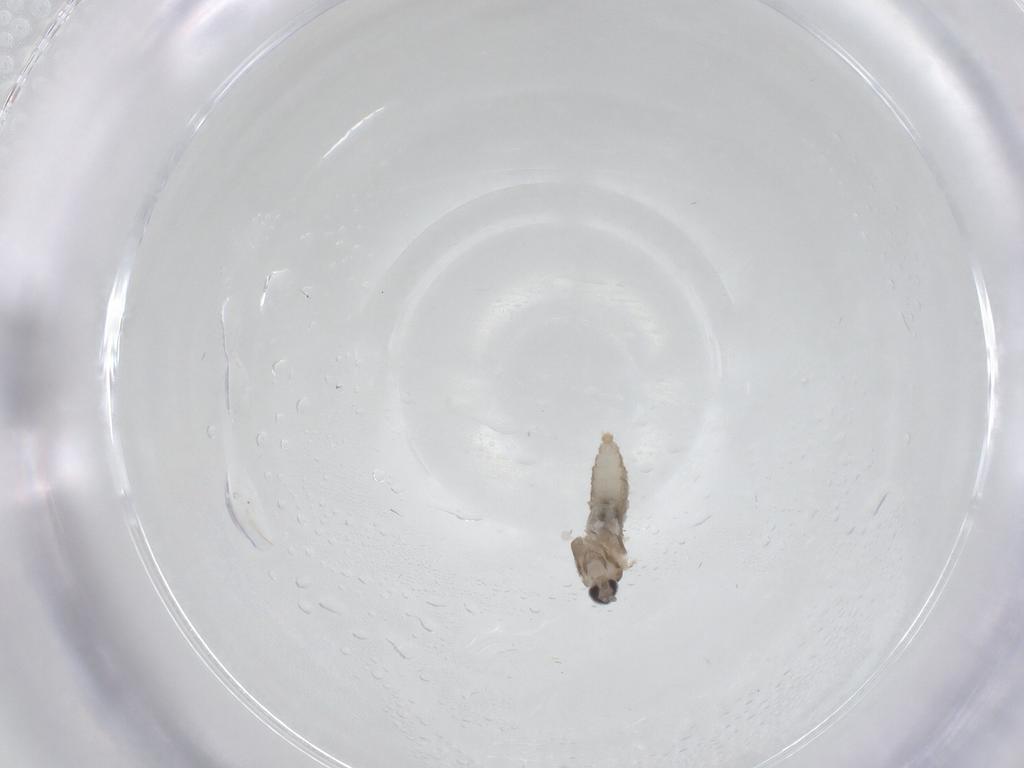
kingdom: Animalia
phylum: Arthropoda
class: Insecta
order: Diptera
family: Cecidomyiidae
